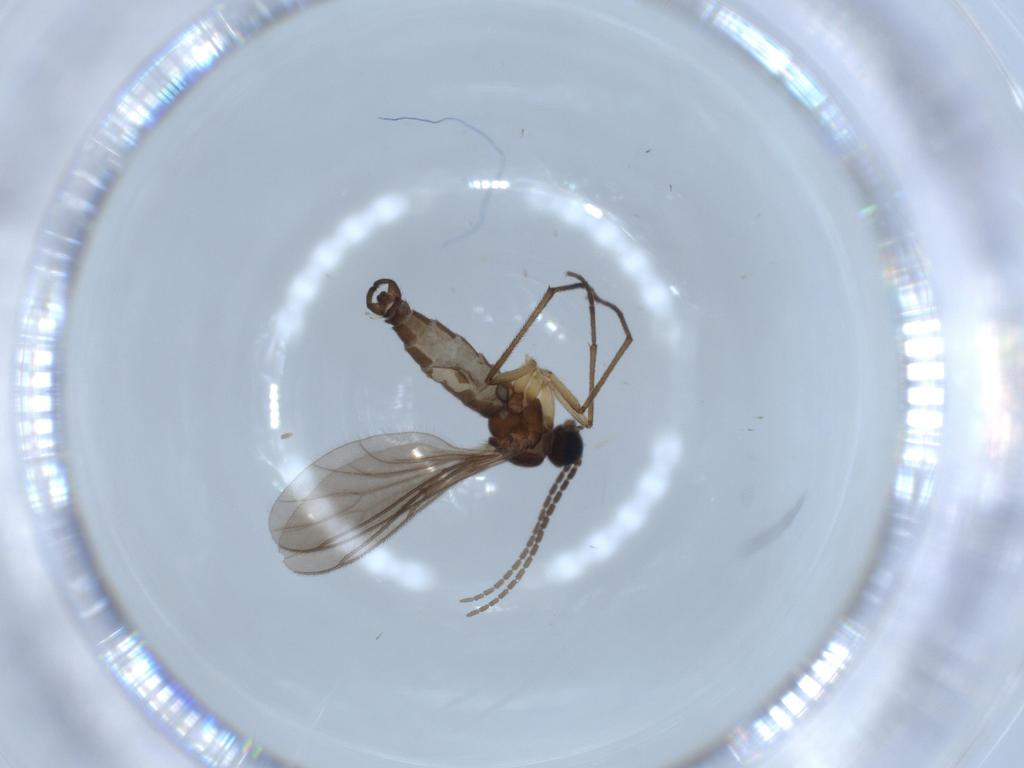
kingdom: Animalia
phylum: Arthropoda
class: Insecta
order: Diptera
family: Sciaridae
